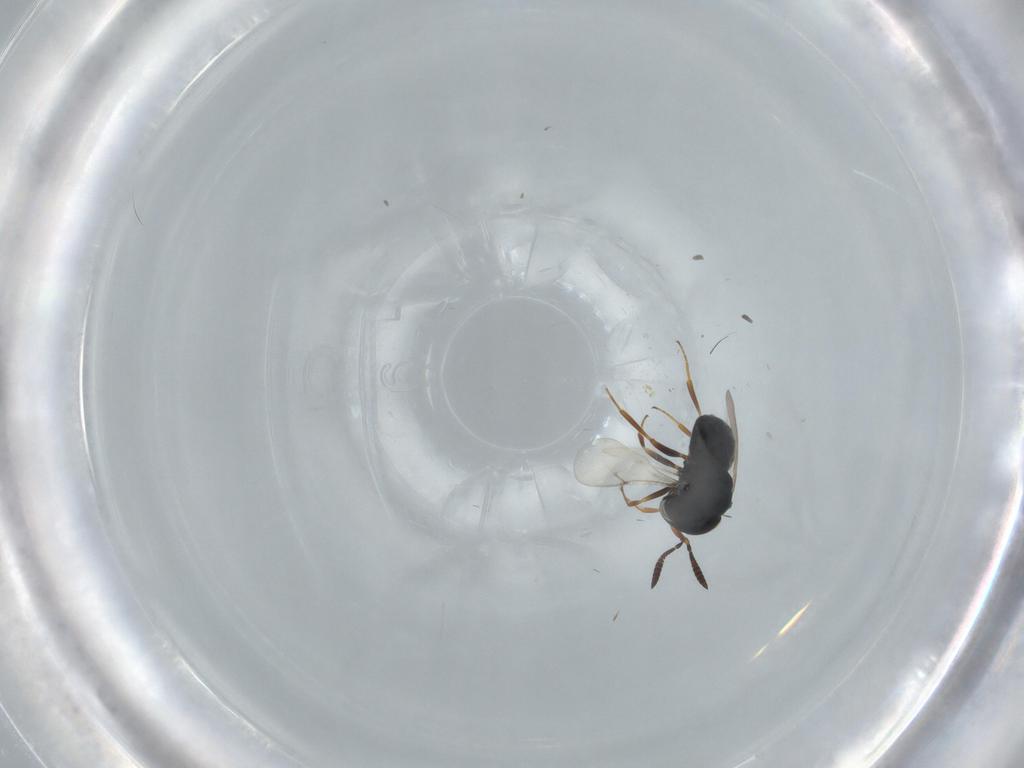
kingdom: Animalia
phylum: Arthropoda
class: Insecta
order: Hymenoptera
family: Scelionidae
